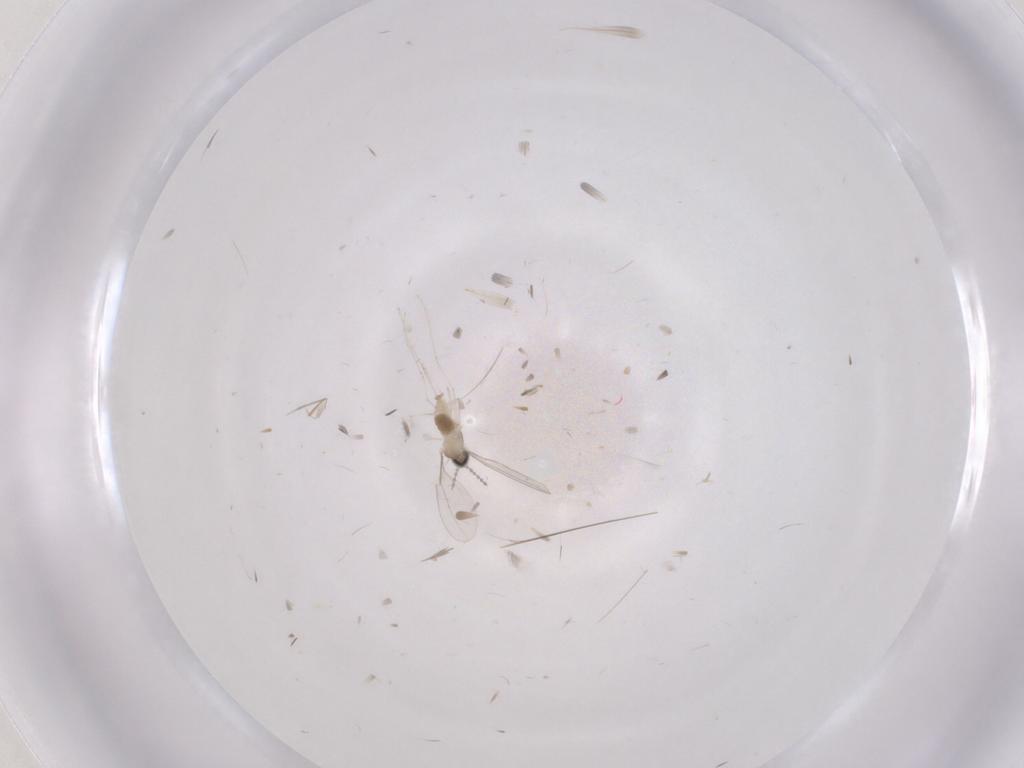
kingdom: Animalia
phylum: Arthropoda
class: Insecta
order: Diptera
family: Cecidomyiidae
